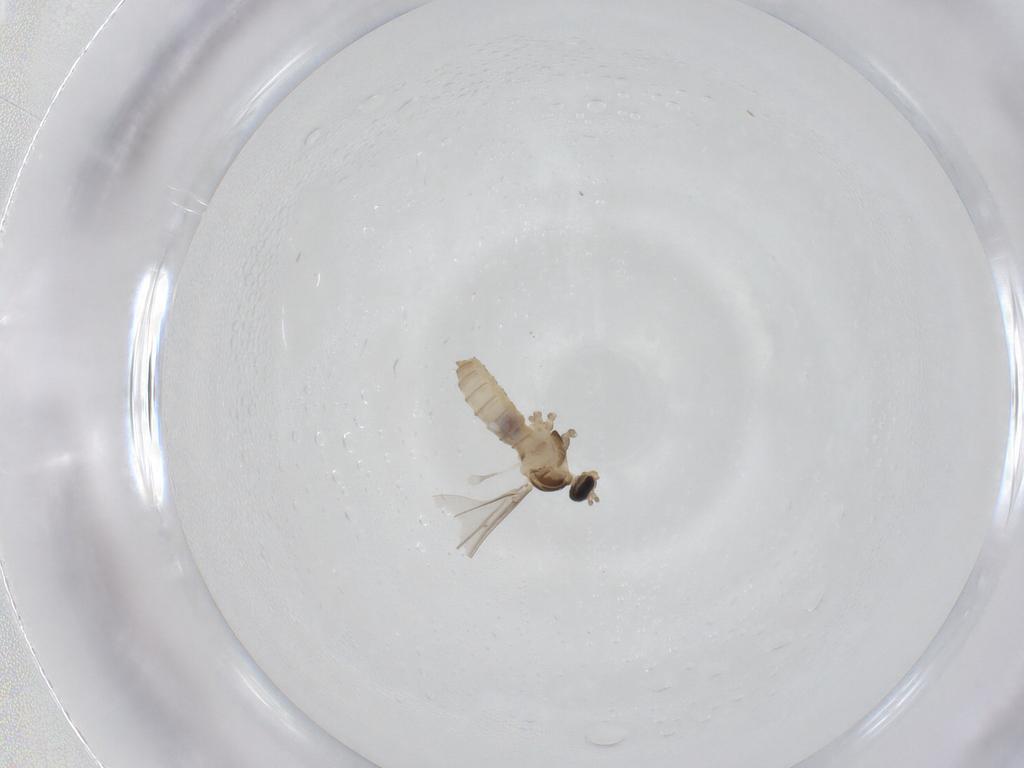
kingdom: Animalia
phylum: Arthropoda
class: Insecta
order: Diptera
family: Cecidomyiidae
